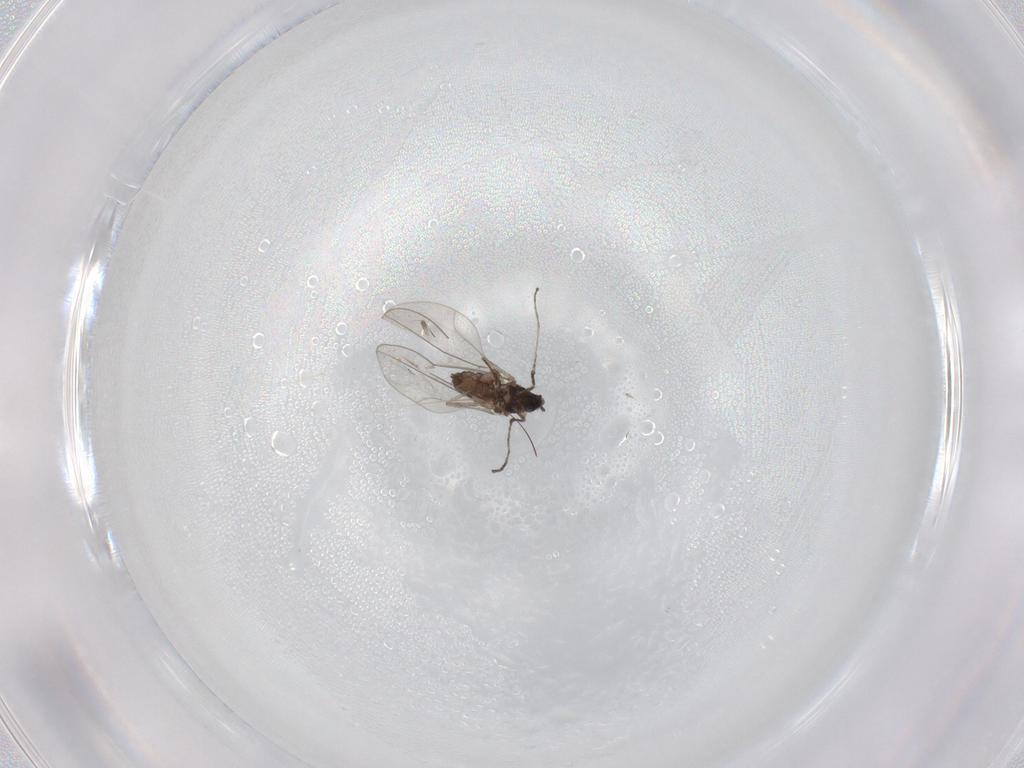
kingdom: Animalia
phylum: Arthropoda
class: Insecta
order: Diptera
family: Cecidomyiidae
